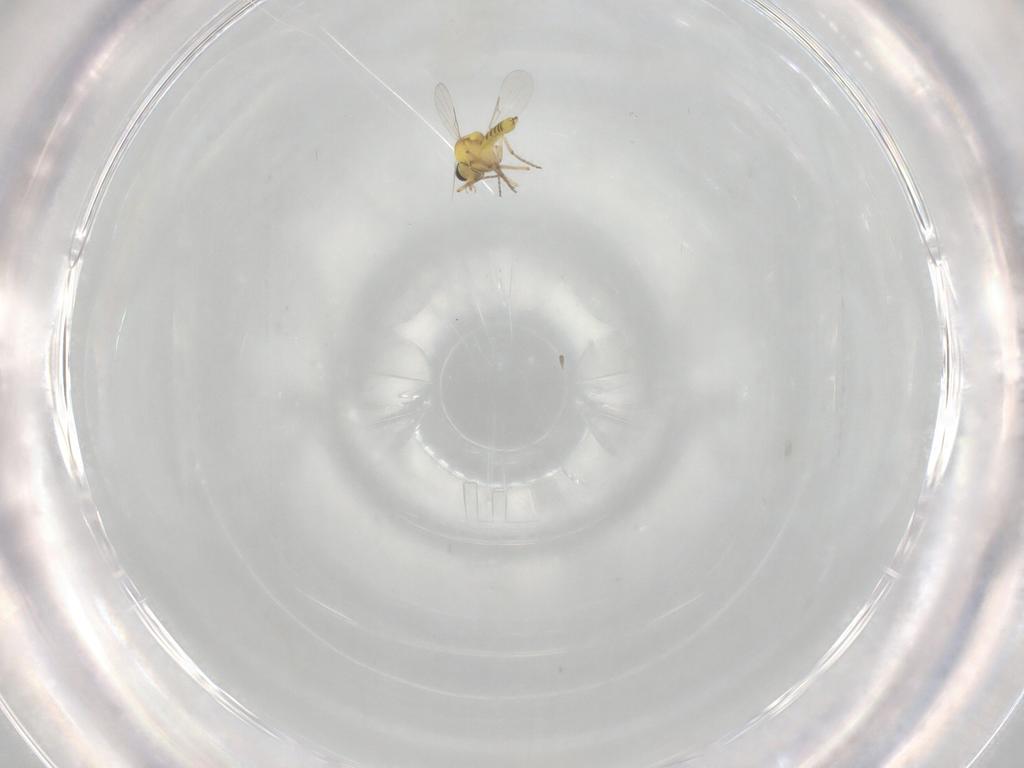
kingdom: Animalia
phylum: Arthropoda
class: Insecta
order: Diptera
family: Ceratopogonidae
